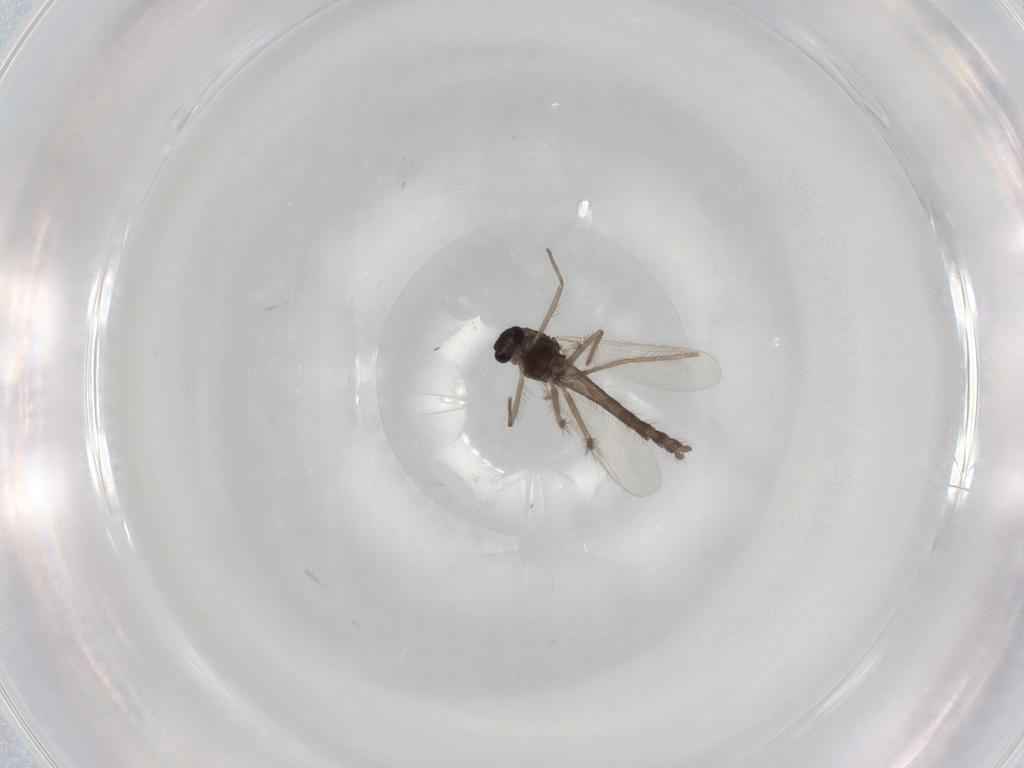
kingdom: Animalia
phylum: Arthropoda
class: Insecta
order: Diptera
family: Chironomidae
